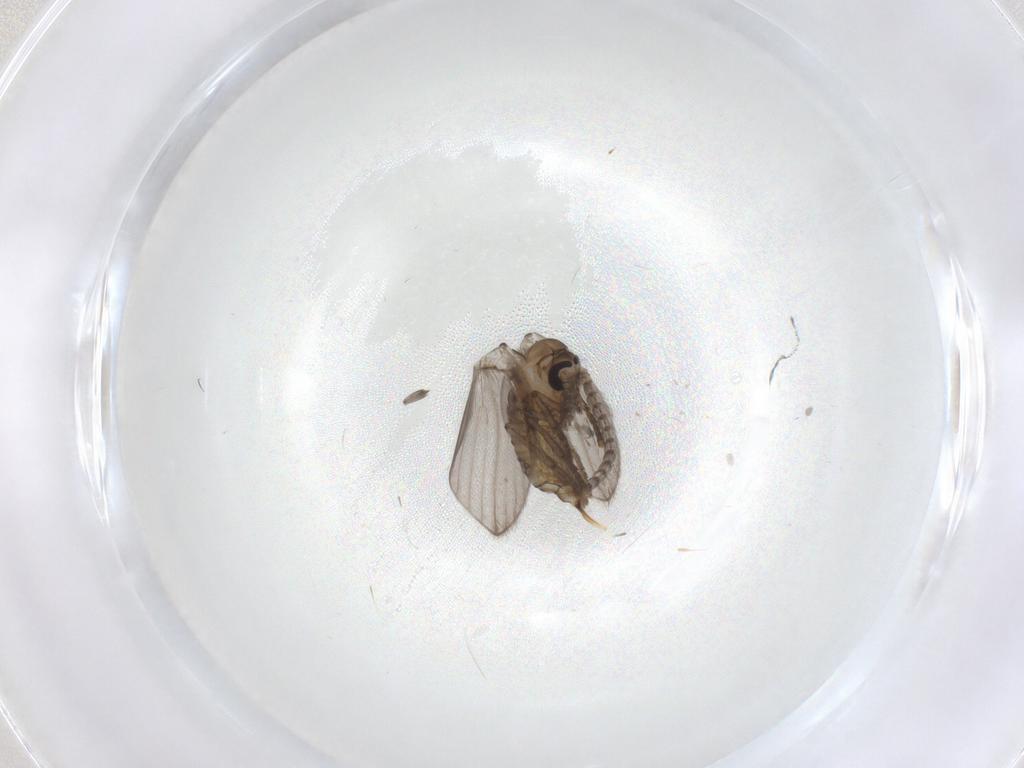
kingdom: Animalia
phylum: Arthropoda
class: Insecta
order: Diptera
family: Psychodidae
